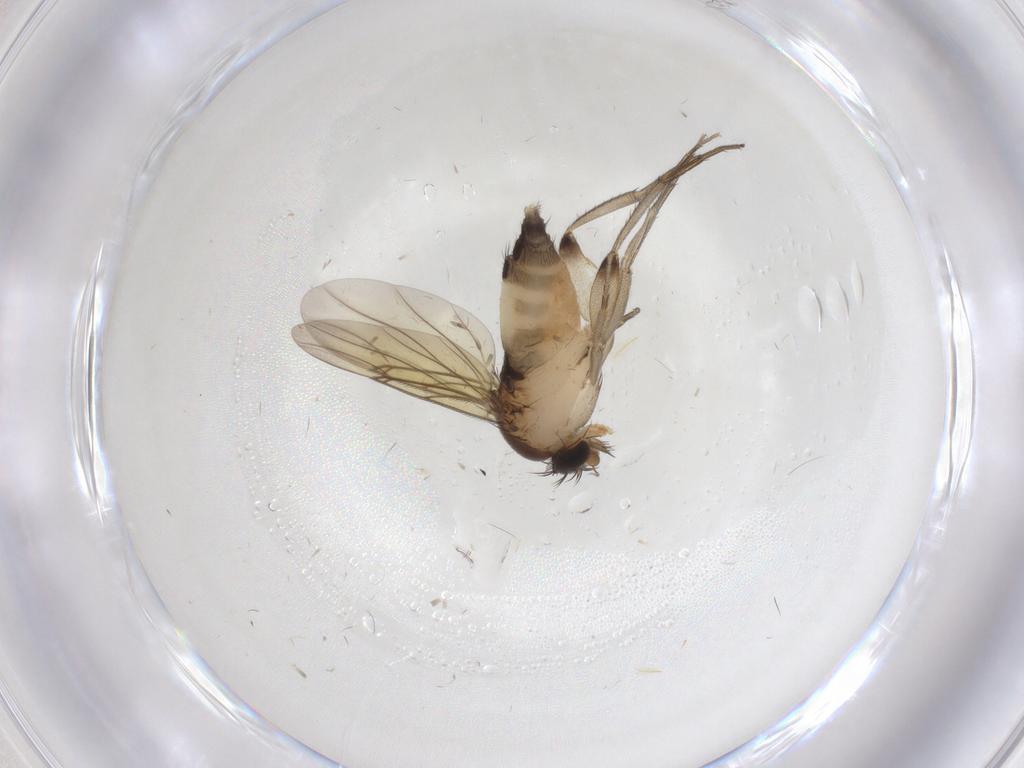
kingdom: Animalia
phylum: Arthropoda
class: Insecta
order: Diptera
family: Phoridae
